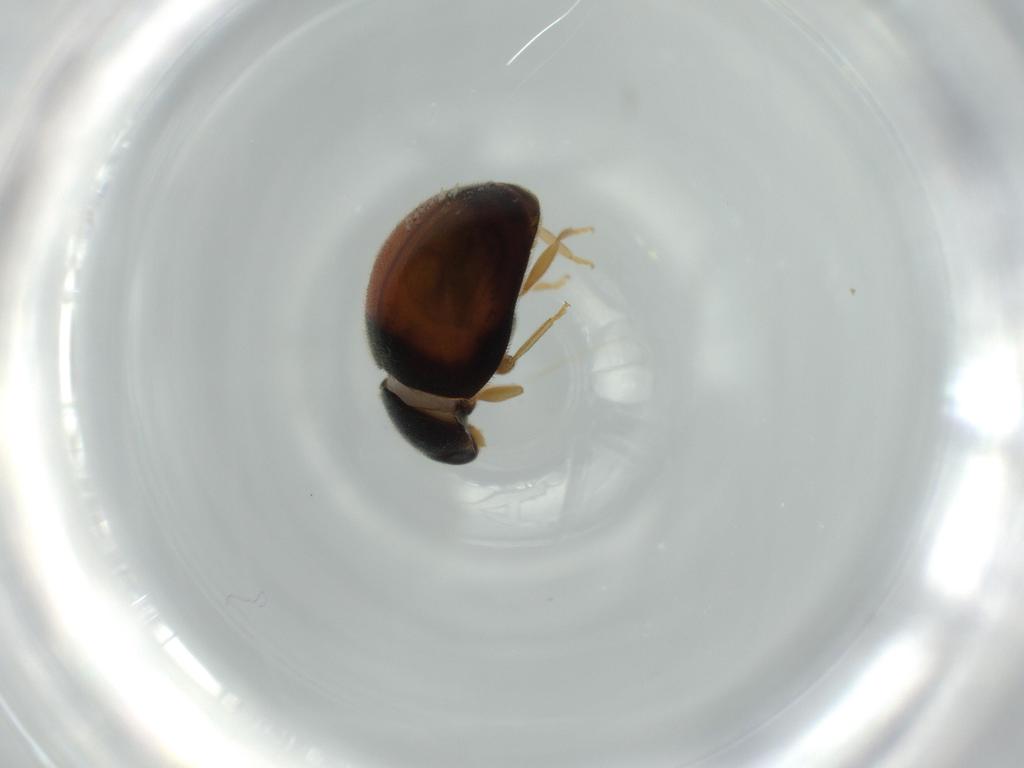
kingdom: Animalia
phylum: Arthropoda
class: Insecta
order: Coleoptera
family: Coccinellidae
